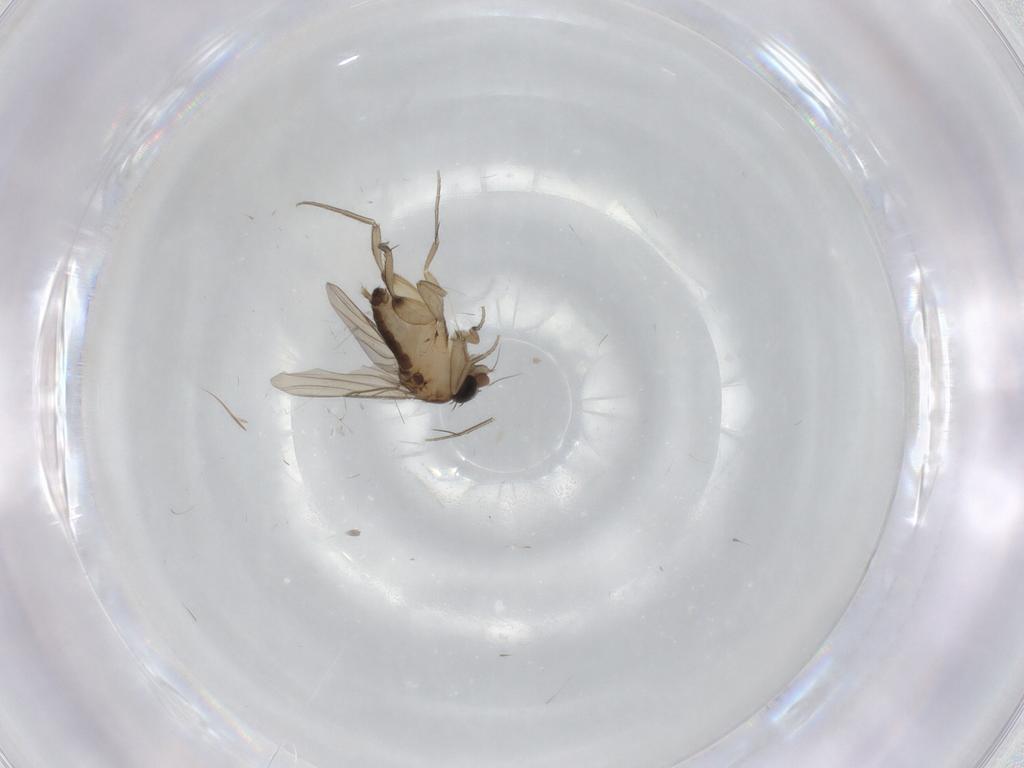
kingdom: Animalia
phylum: Arthropoda
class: Insecta
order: Diptera
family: Phoridae
